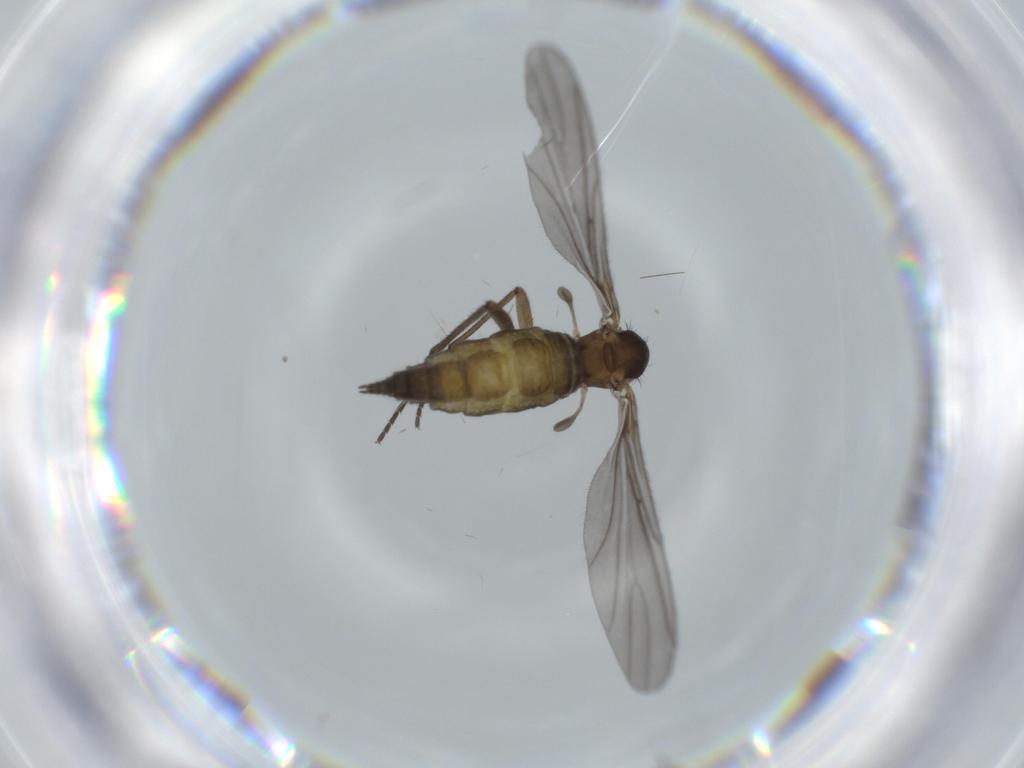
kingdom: Animalia
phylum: Arthropoda
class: Insecta
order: Diptera
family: Sciaridae
